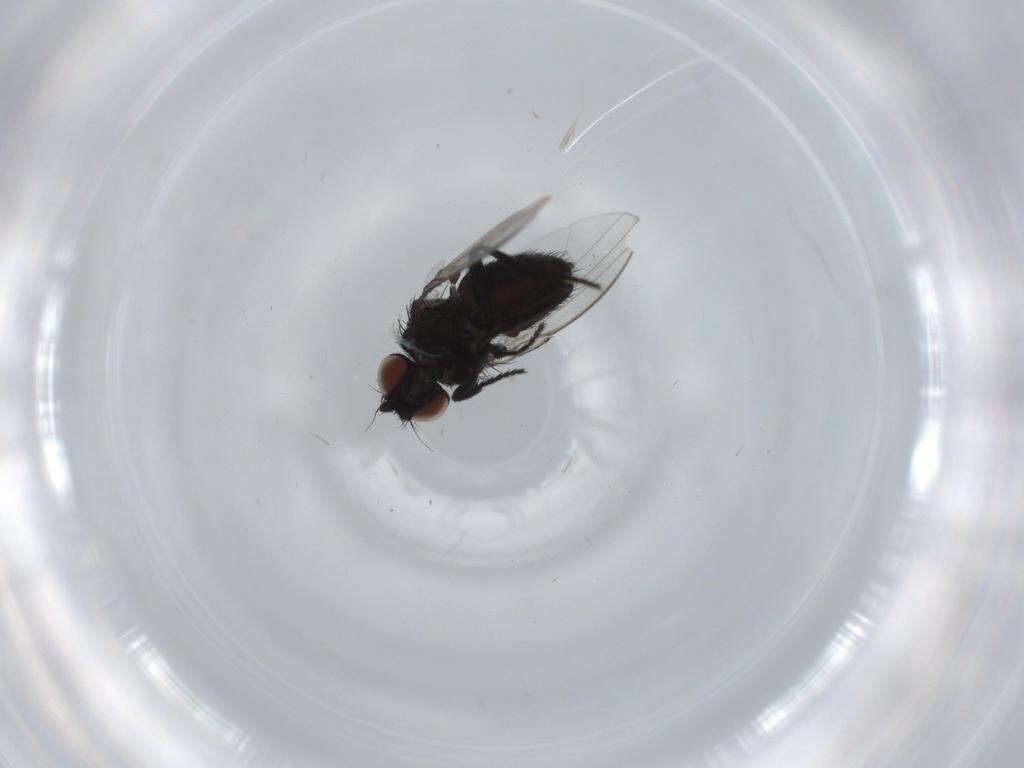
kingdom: Animalia
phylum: Arthropoda
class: Insecta
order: Diptera
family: Milichiidae
